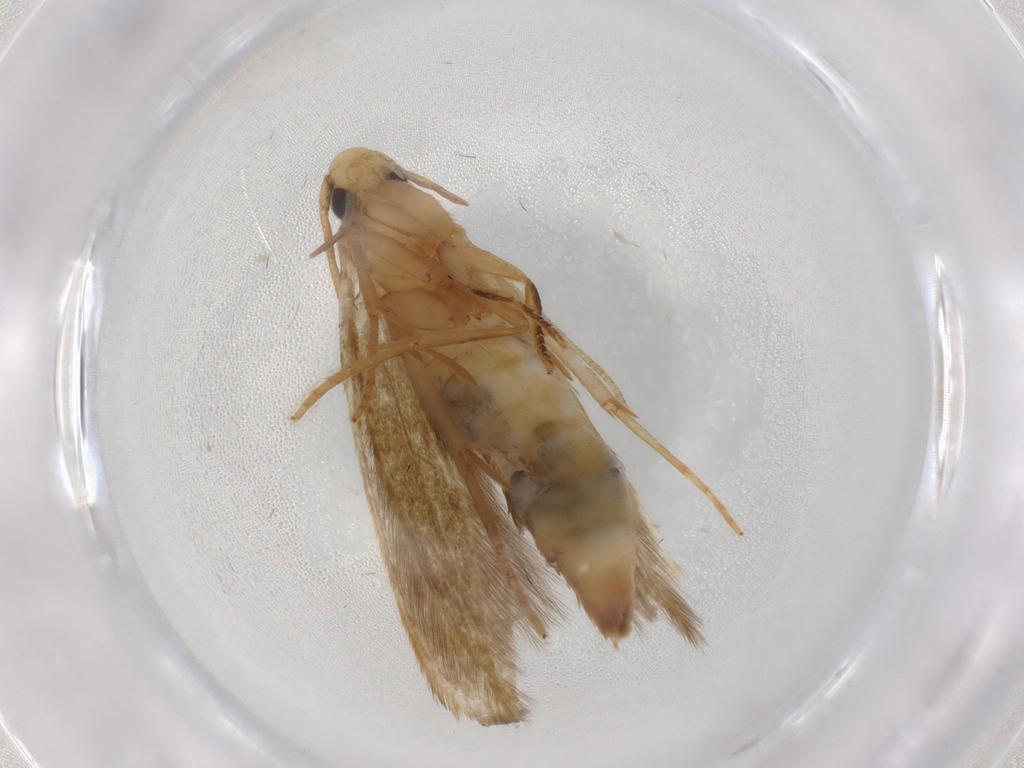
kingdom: Animalia
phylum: Arthropoda
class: Insecta
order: Lepidoptera
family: Tineidae
